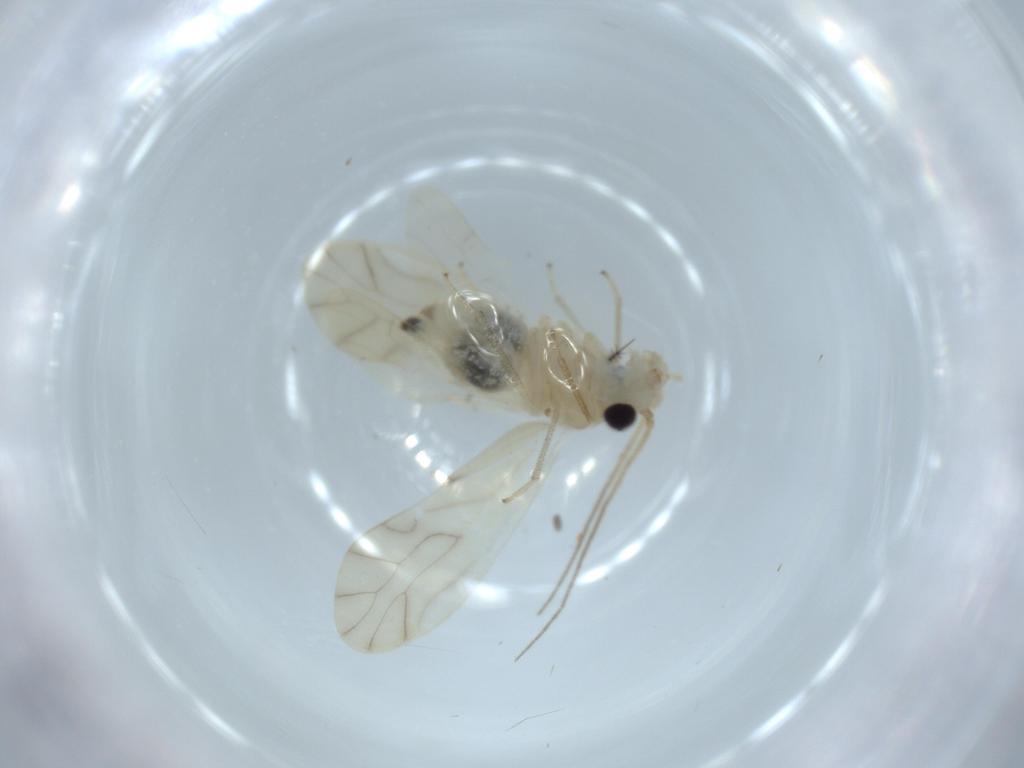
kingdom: Animalia
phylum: Arthropoda
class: Insecta
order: Psocodea
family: Caeciliusidae
